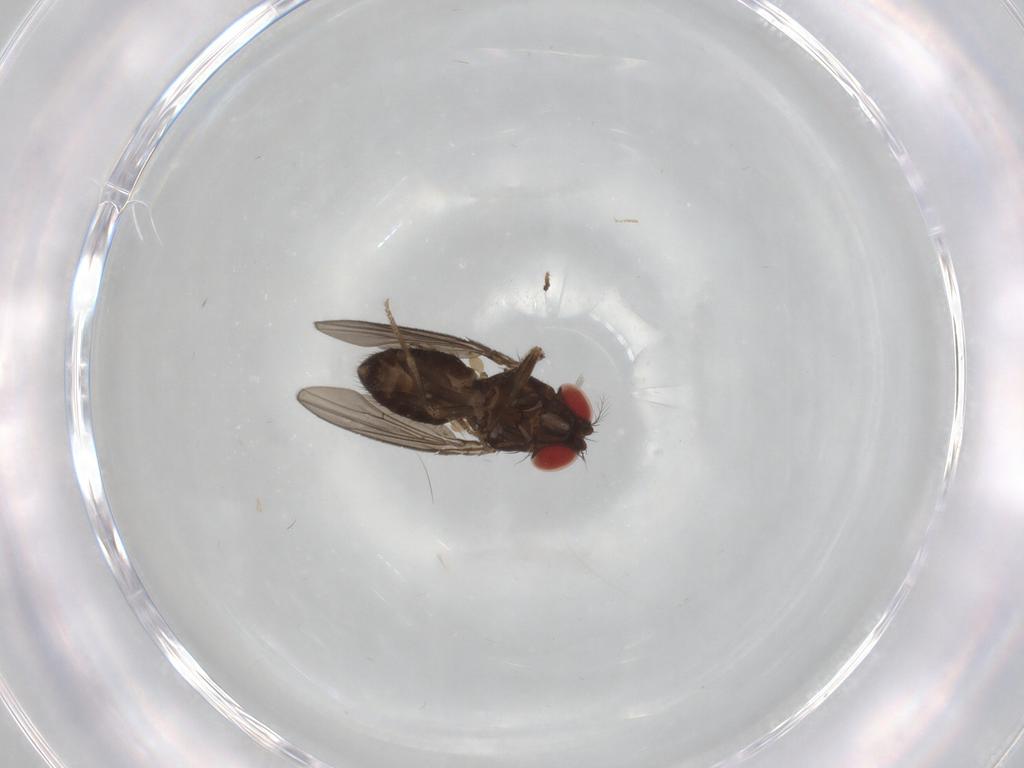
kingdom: Animalia
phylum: Arthropoda
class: Insecta
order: Diptera
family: Drosophilidae
